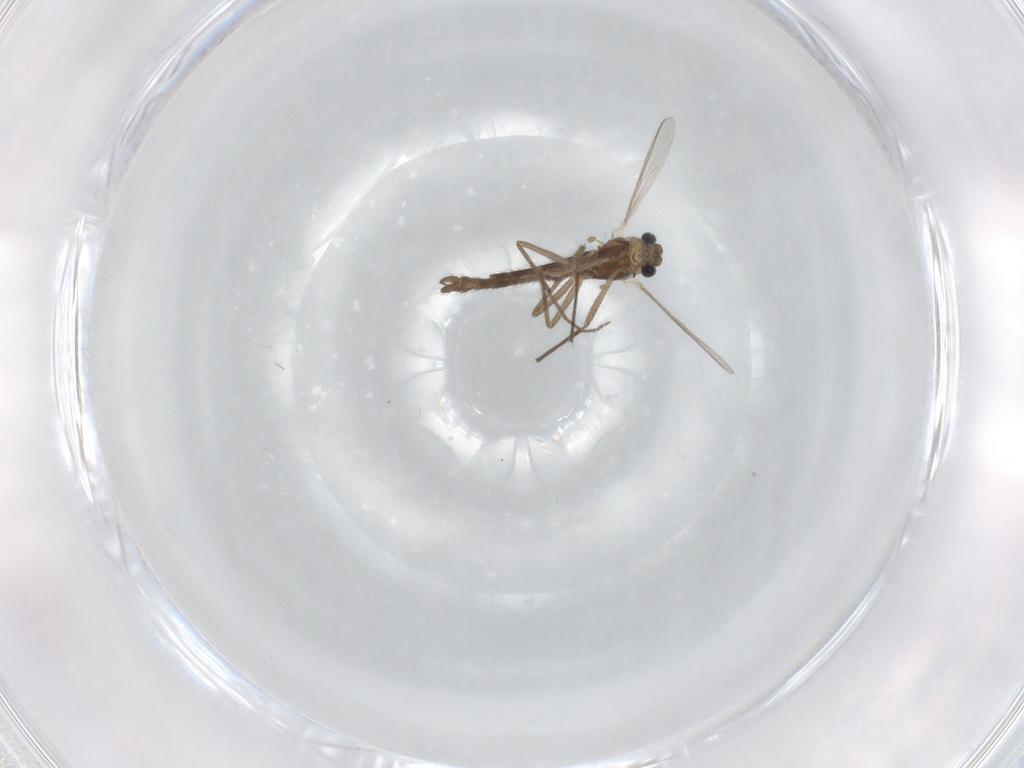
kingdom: Animalia
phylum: Arthropoda
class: Insecta
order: Diptera
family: Chironomidae
